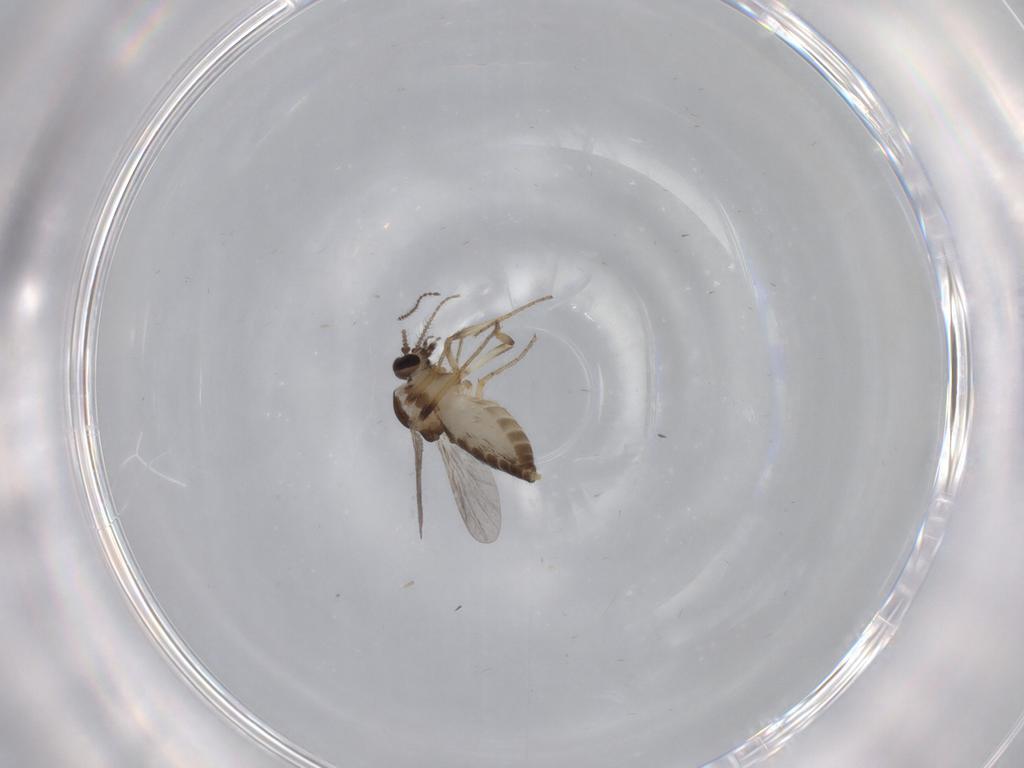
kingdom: Animalia
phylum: Arthropoda
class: Insecta
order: Diptera
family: Ceratopogonidae
